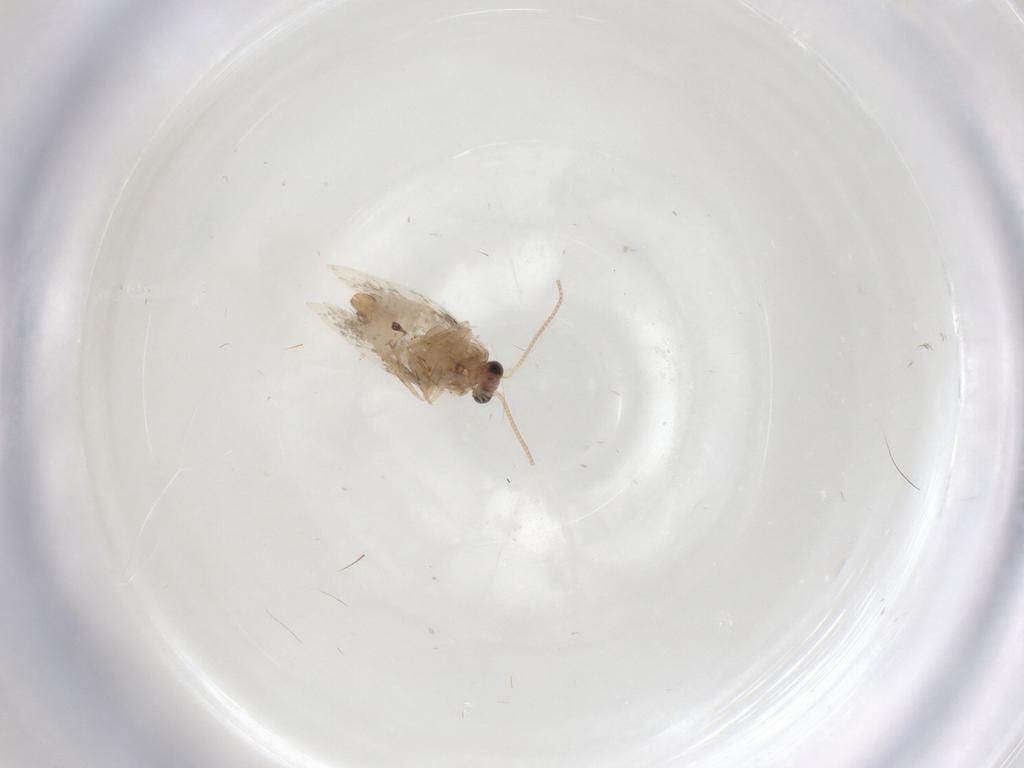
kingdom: Animalia
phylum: Arthropoda
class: Insecta
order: Lepidoptera
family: Nepticulidae
